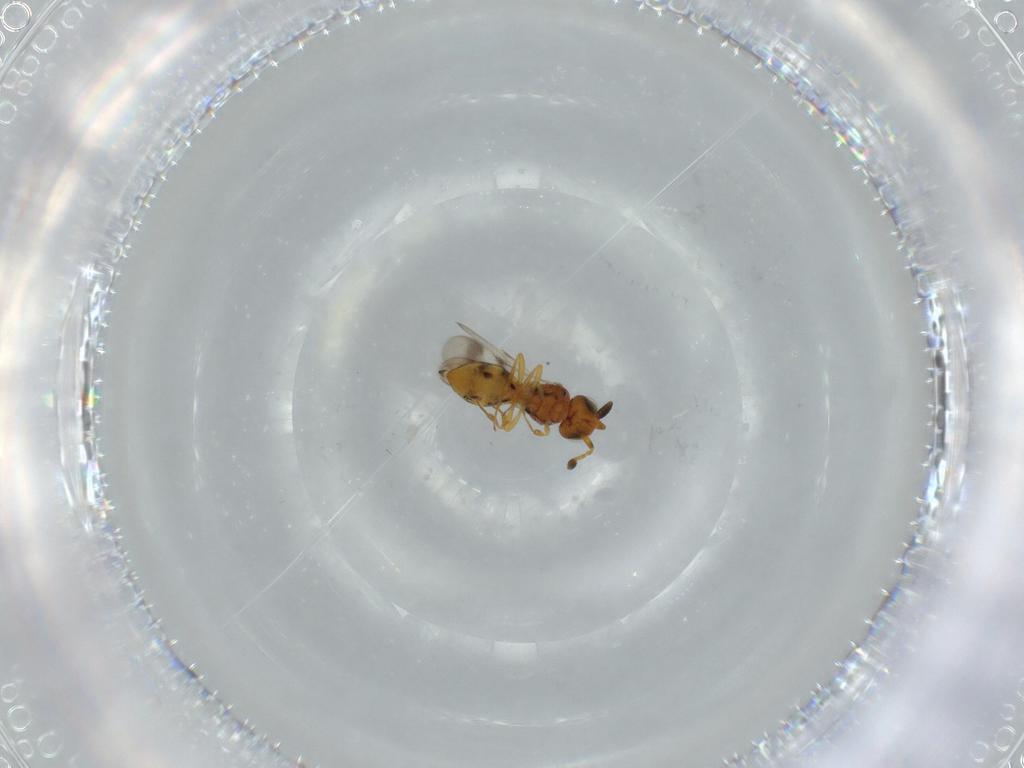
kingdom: Animalia
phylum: Arthropoda
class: Insecta
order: Hymenoptera
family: Scelionidae
